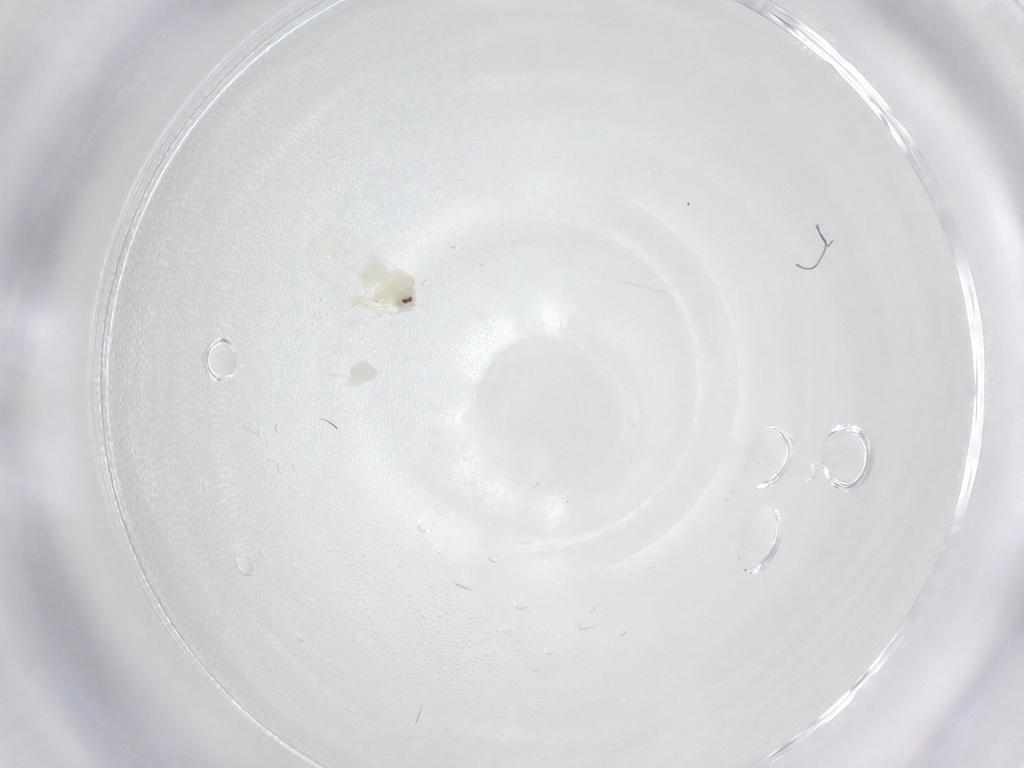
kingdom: Animalia
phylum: Arthropoda
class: Insecta
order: Hemiptera
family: Aleyrodidae
